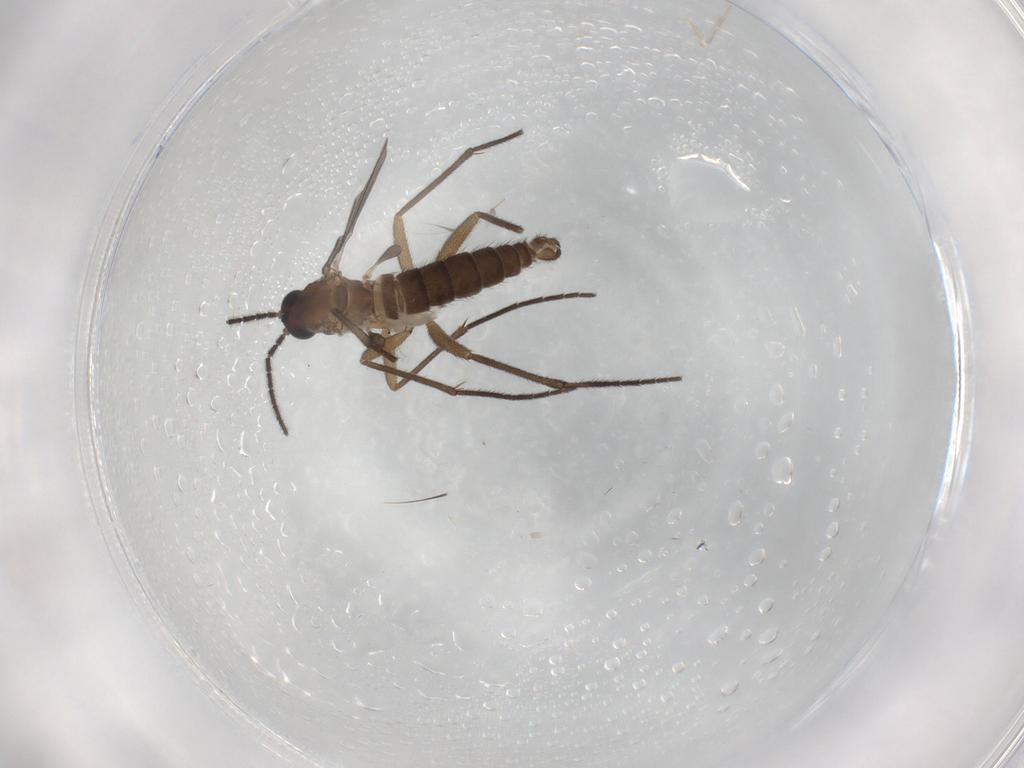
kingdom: Animalia
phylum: Arthropoda
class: Insecta
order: Diptera
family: Sciaridae
